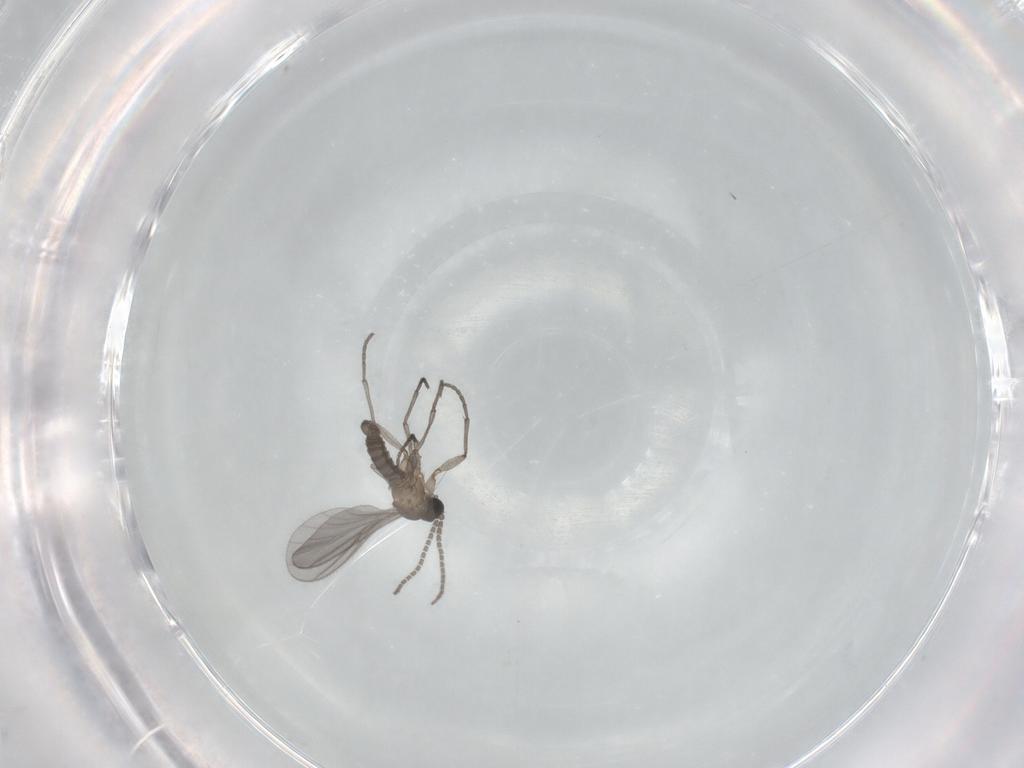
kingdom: Animalia
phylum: Arthropoda
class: Insecta
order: Diptera
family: Sciaridae
